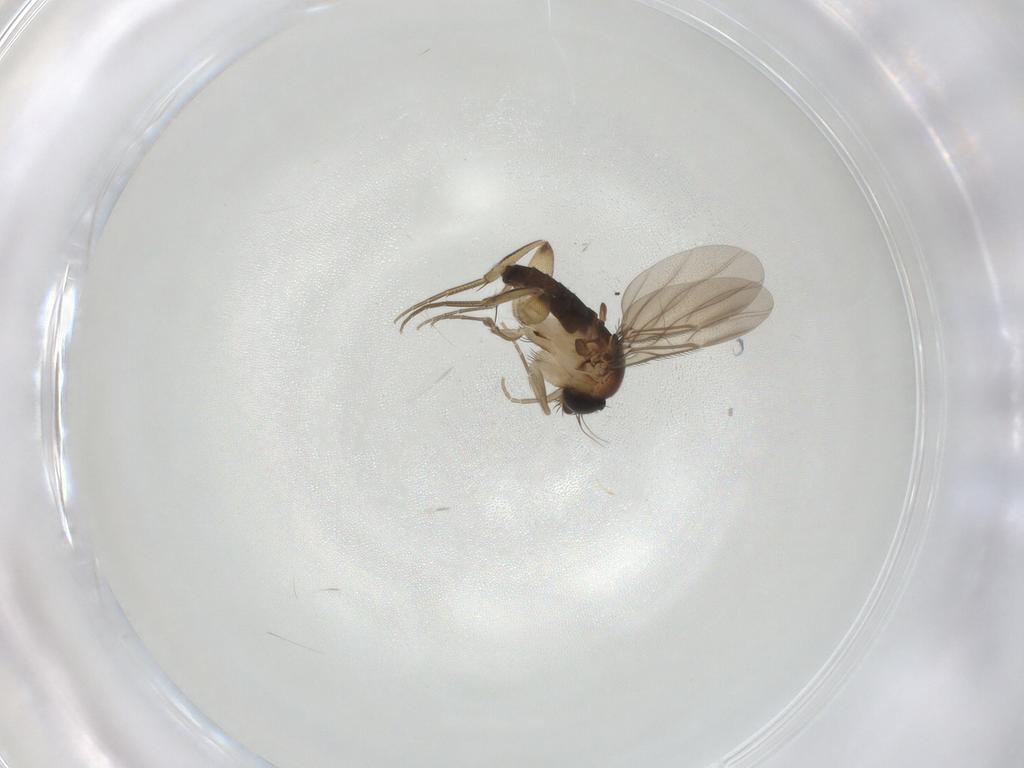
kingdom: Animalia
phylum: Arthropoda
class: Insecta
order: Diptera
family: Phoridae
